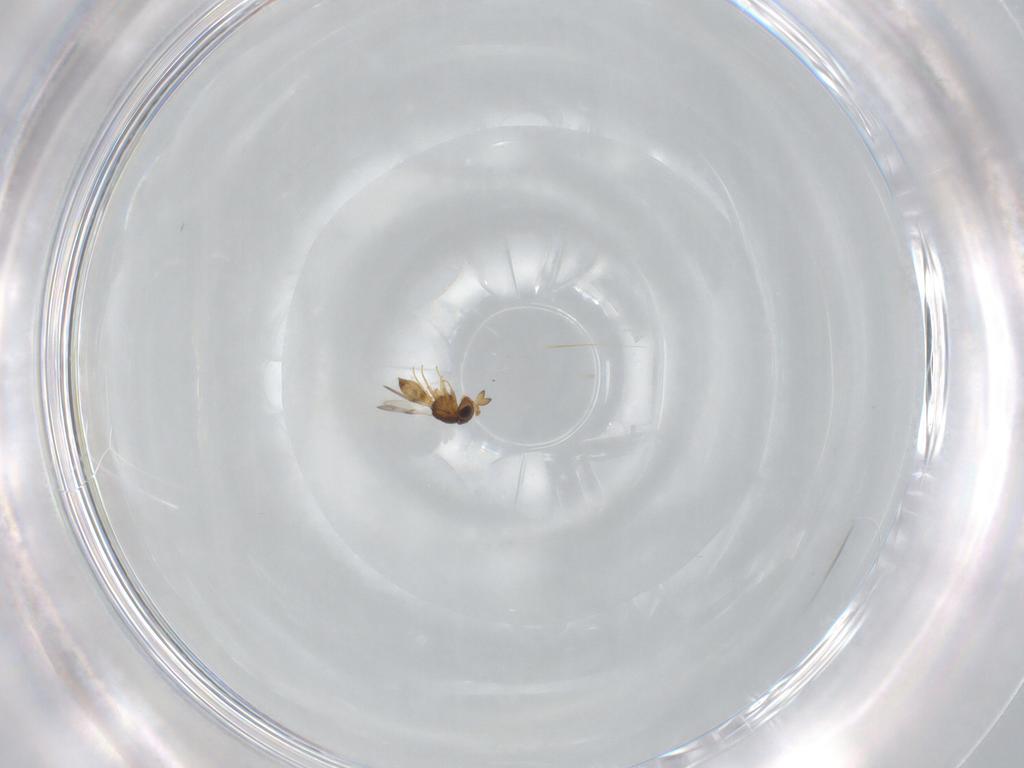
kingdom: Animalia
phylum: Arthropoda
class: Insecta
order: Hymenoptera
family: Scelionidae
